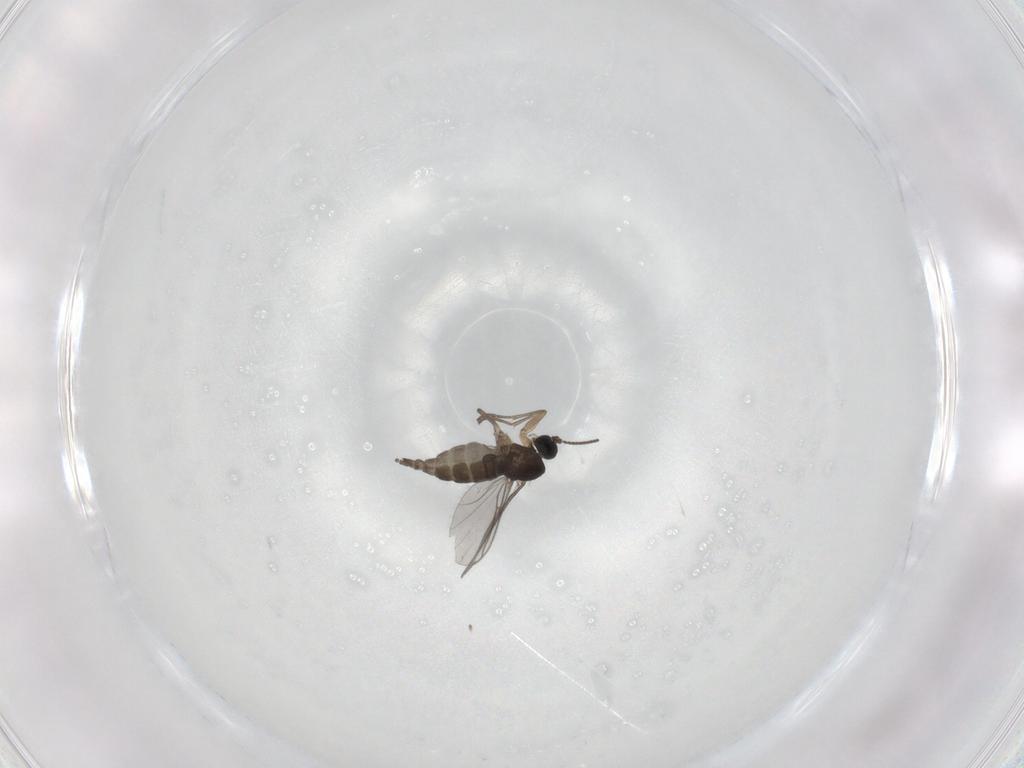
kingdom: Animalia
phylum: Arthropoda
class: Insecta
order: Diptera
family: Sciaridae
